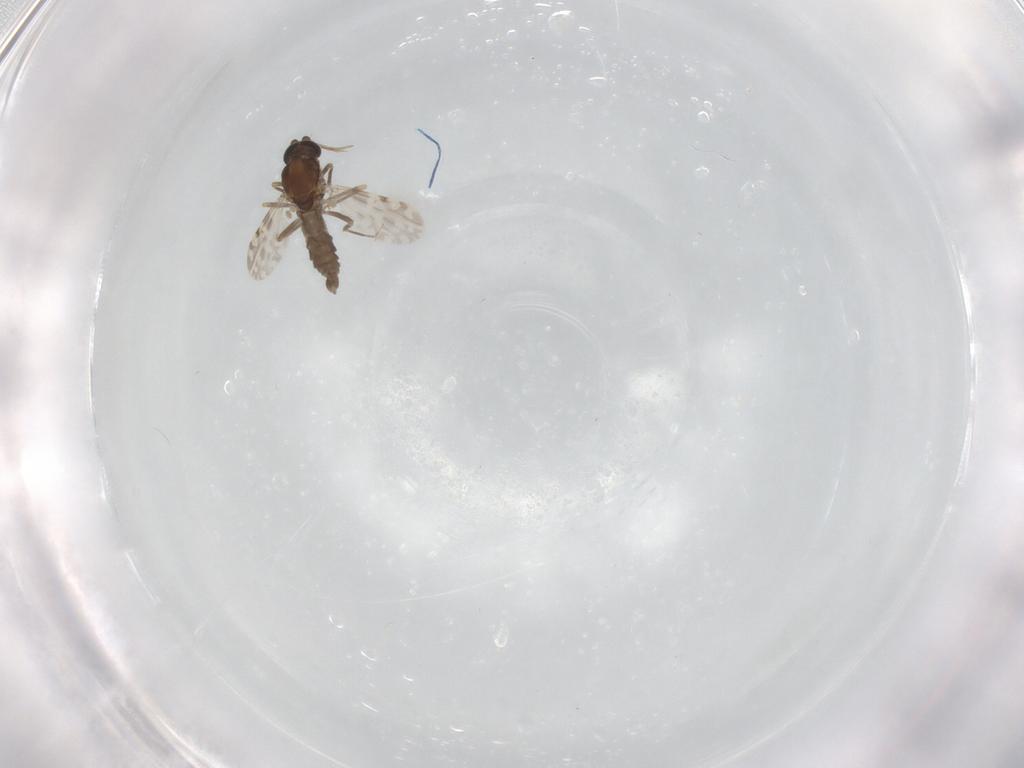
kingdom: Animalia
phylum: Arthropoda
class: Insecta
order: Diptera
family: Ceratopogonidae
